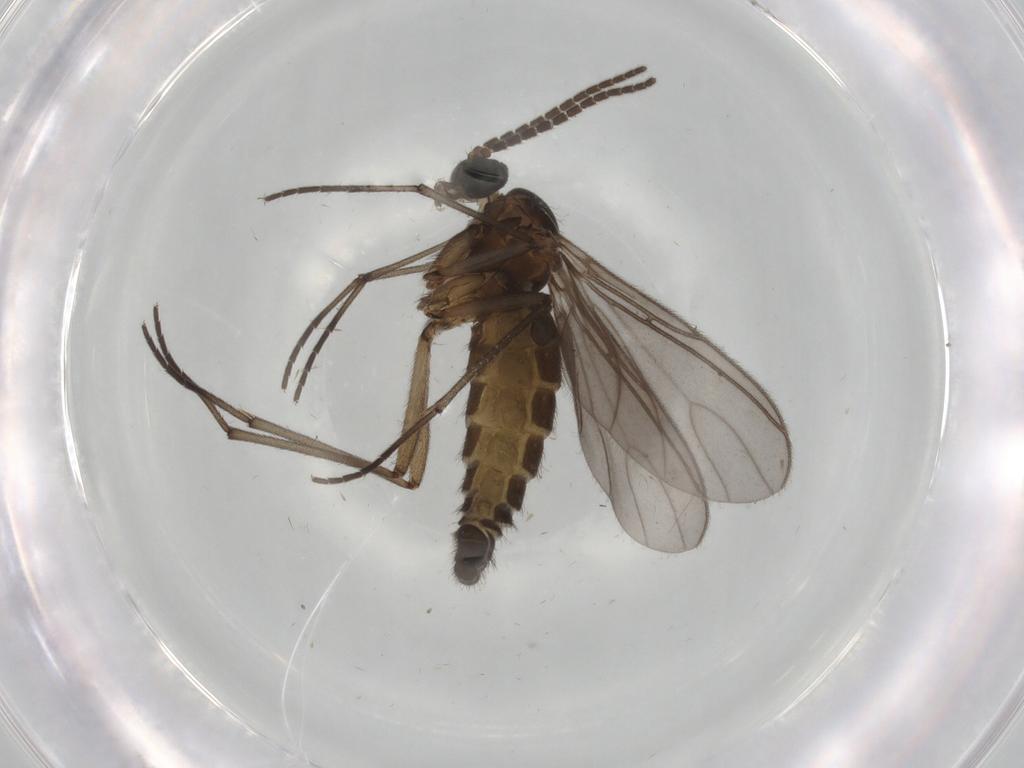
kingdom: Animalia
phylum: Arthropoda
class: Insecta
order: Diptera
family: Sciaridae
